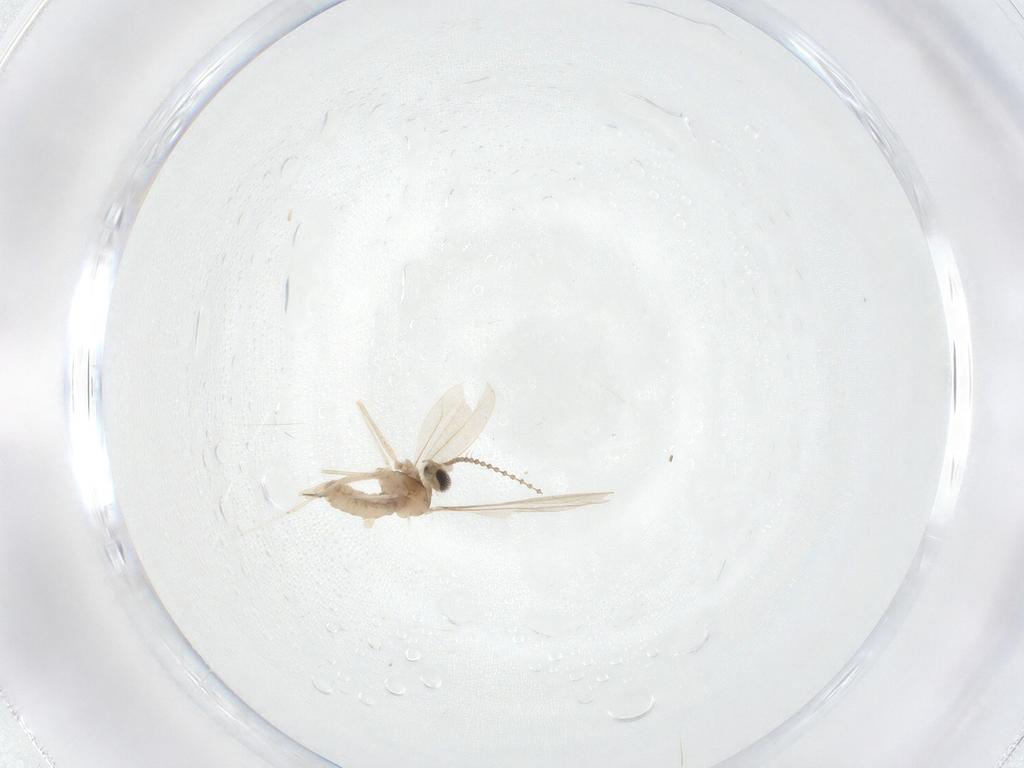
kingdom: Animalia
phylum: Arthropoda
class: Insecta
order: Diptera
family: Cecidomyiidae
